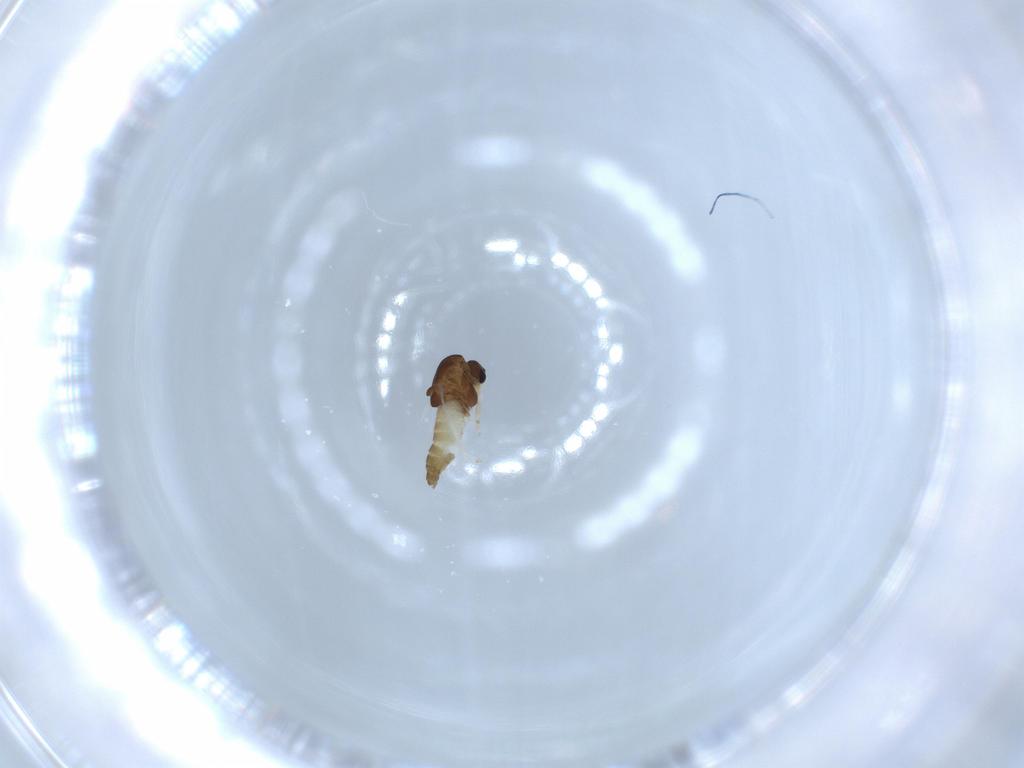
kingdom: Animalia
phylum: Arthropoda
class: Insecta
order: Diptera
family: Chironomidae
